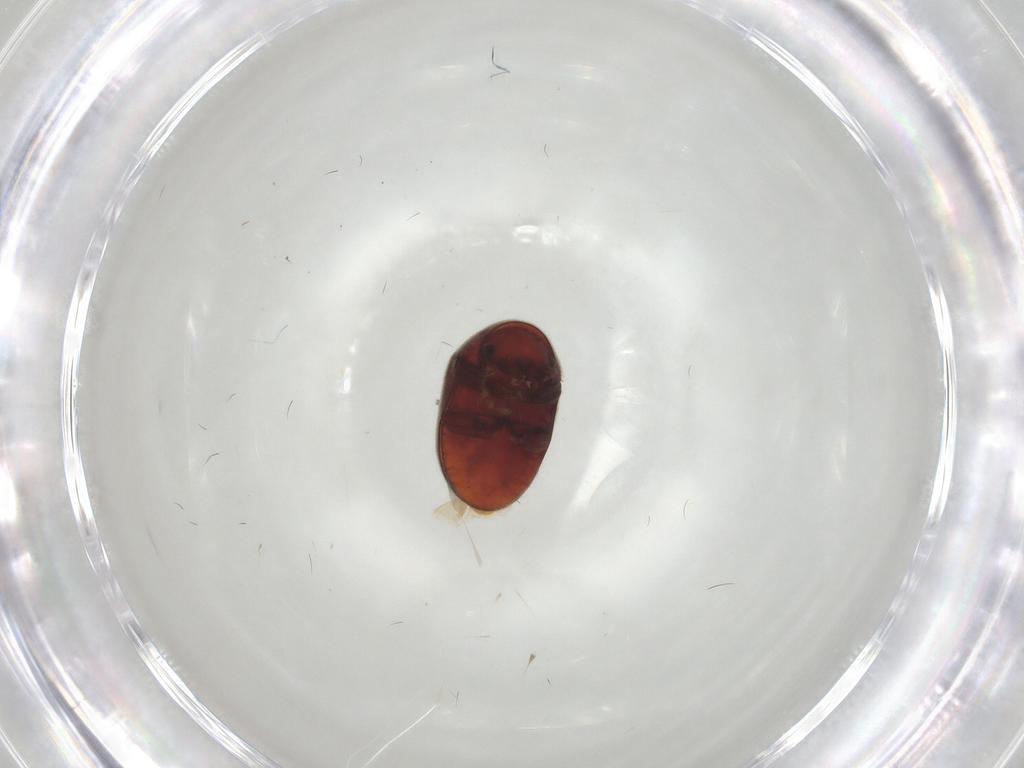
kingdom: Animalia
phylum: Arthropoda
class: Insecta
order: Coleoptera
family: Ptinidae
